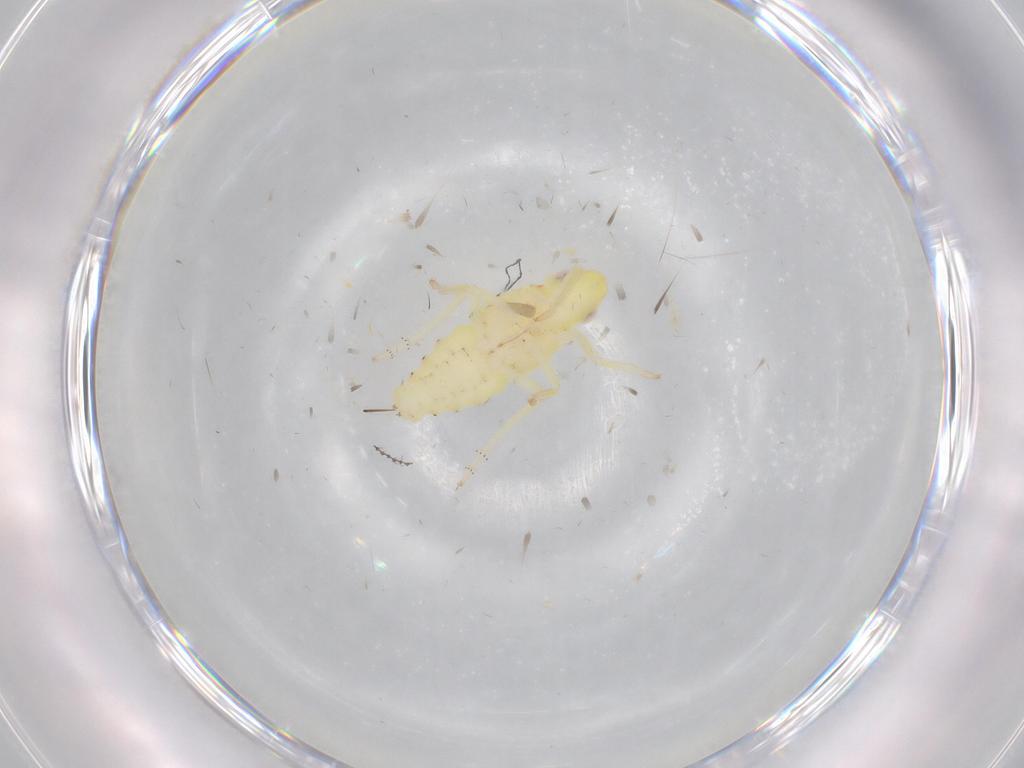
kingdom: Animalia
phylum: Arthropoda
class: Insecta
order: Hemiptera
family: Tropiduchidae
